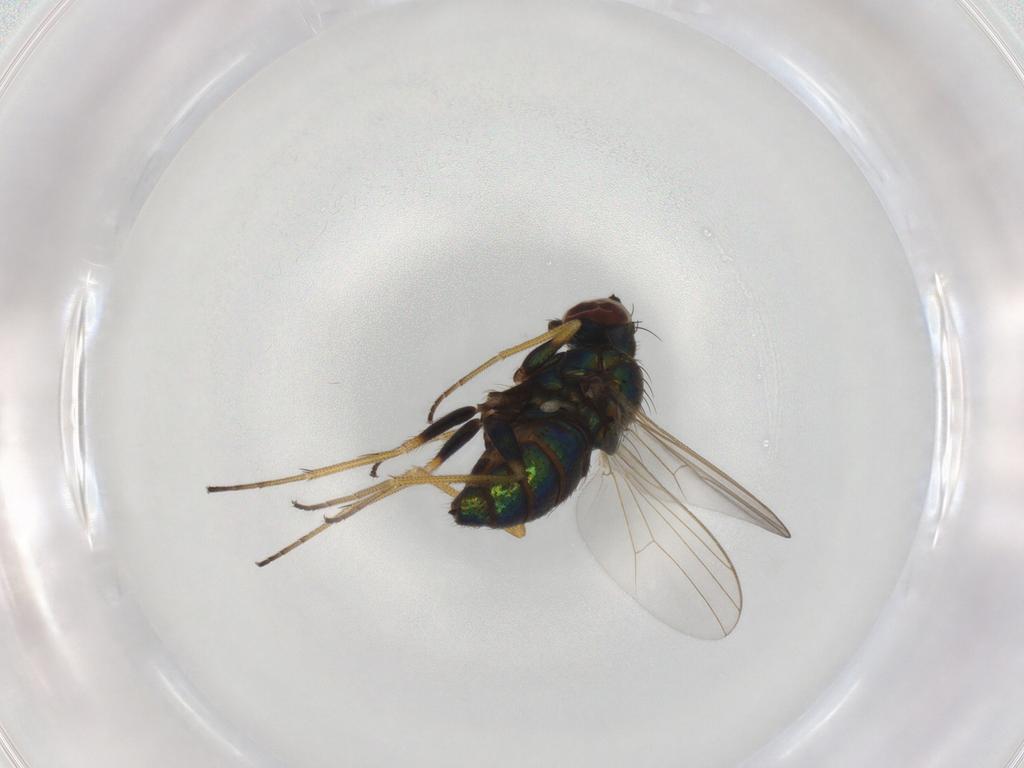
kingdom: Animalia
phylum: Arthropoda
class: Insecta
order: Diptera
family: Dolichopodidae
